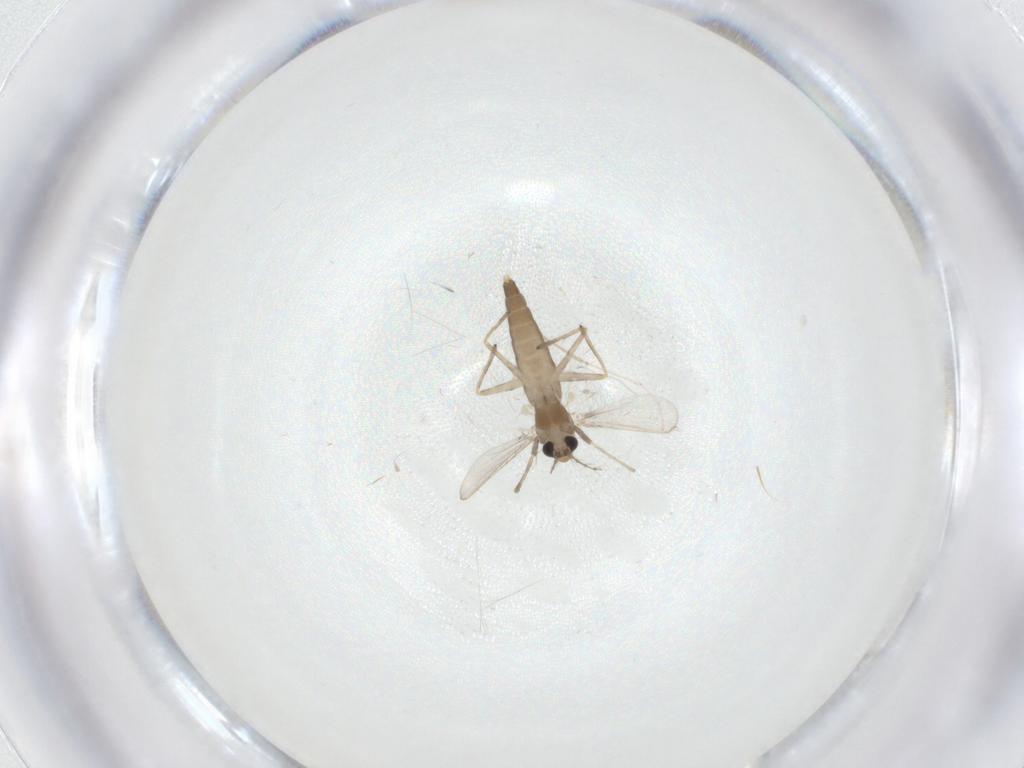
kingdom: Animalia
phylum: Arthropoda
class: Insecta
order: Diptera
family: Chironomidae
